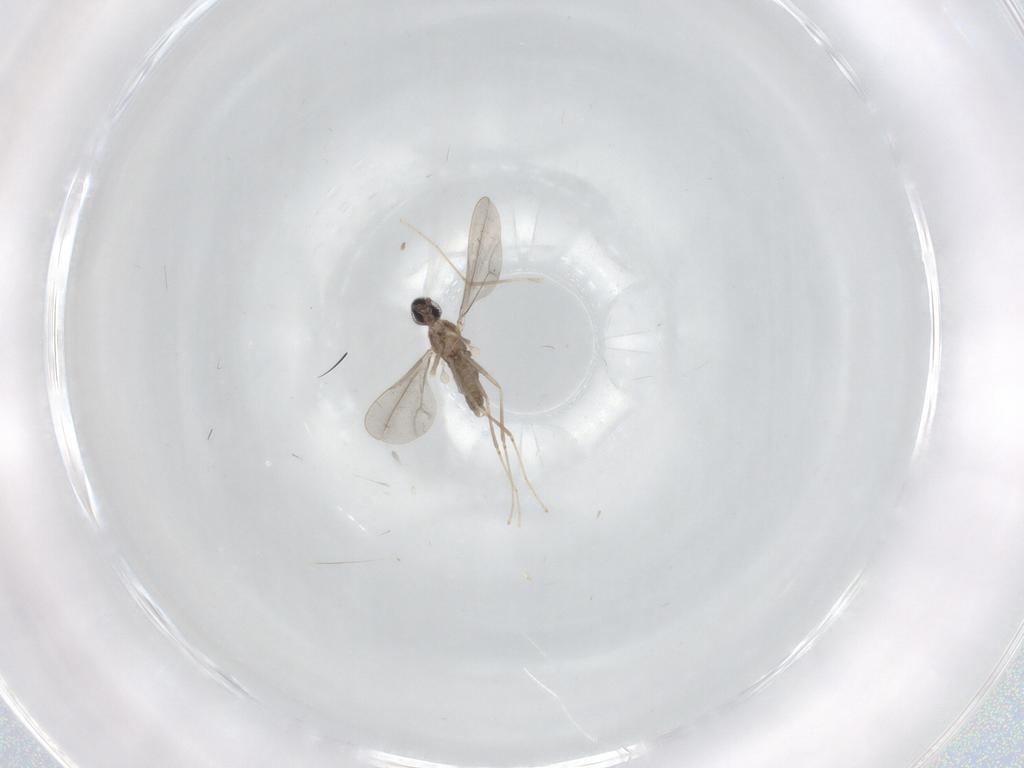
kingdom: Animalia
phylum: Arthropoda
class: Insecta
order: Diptera
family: Cecidomyiidae
